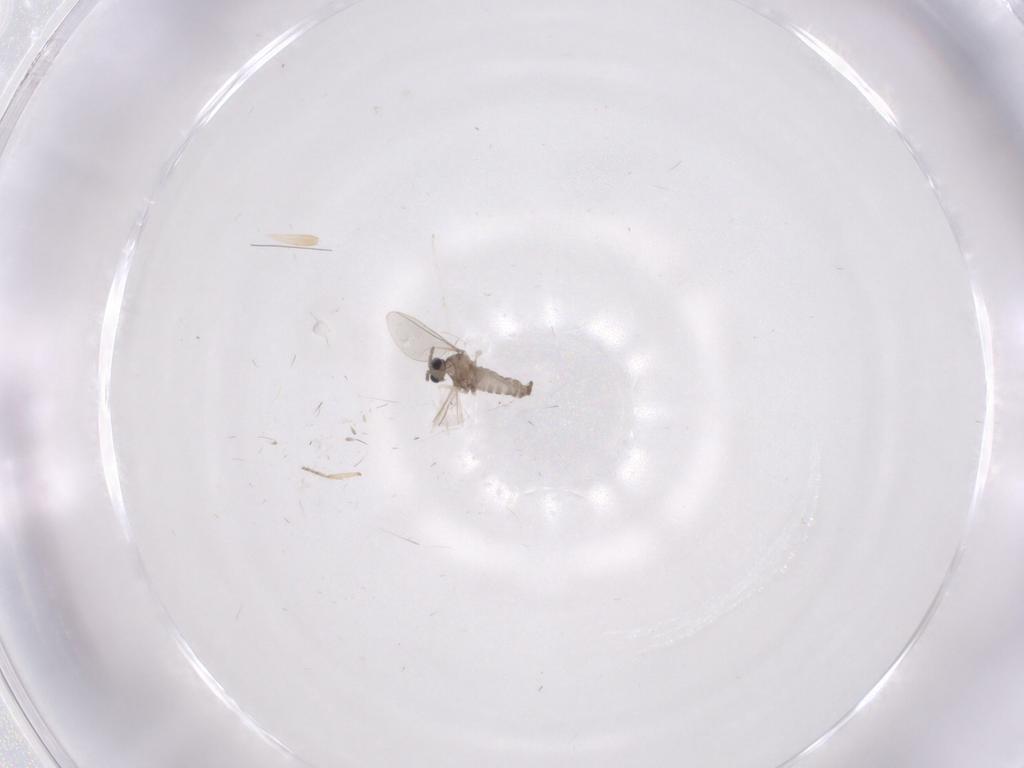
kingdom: Animalia
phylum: Arthropoda
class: Insecta
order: Diptera
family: Cecidomyiidae
